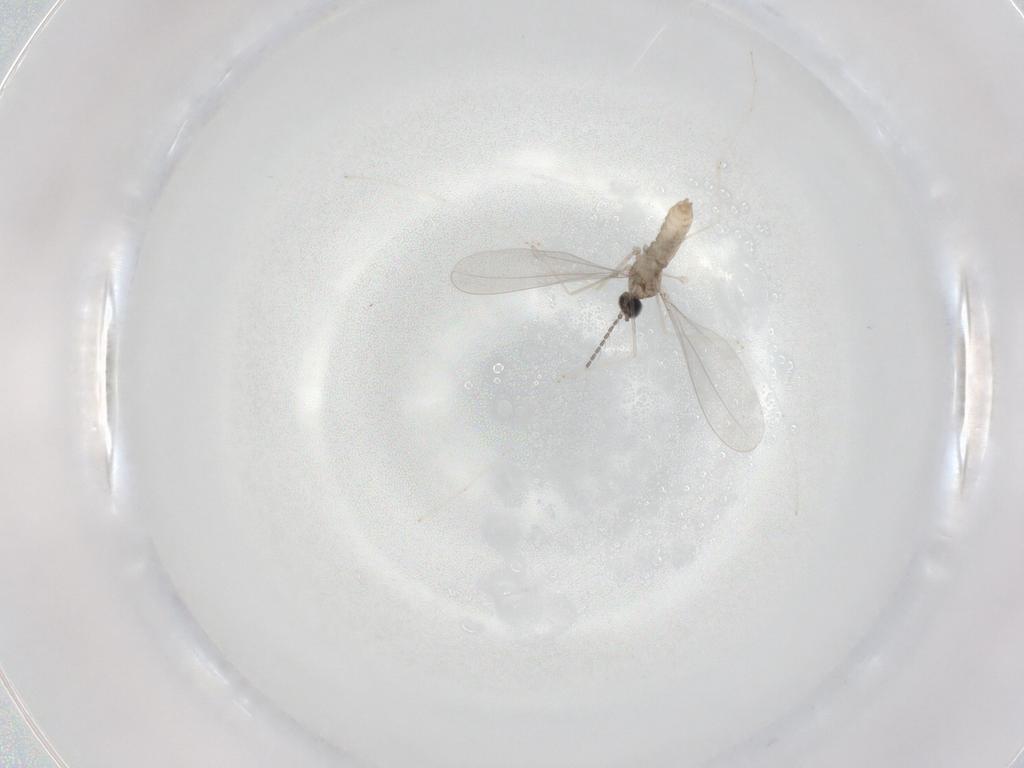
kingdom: Animalia
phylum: Arthropoda
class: Insecta
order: Diptera
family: Cecidomyiidae
